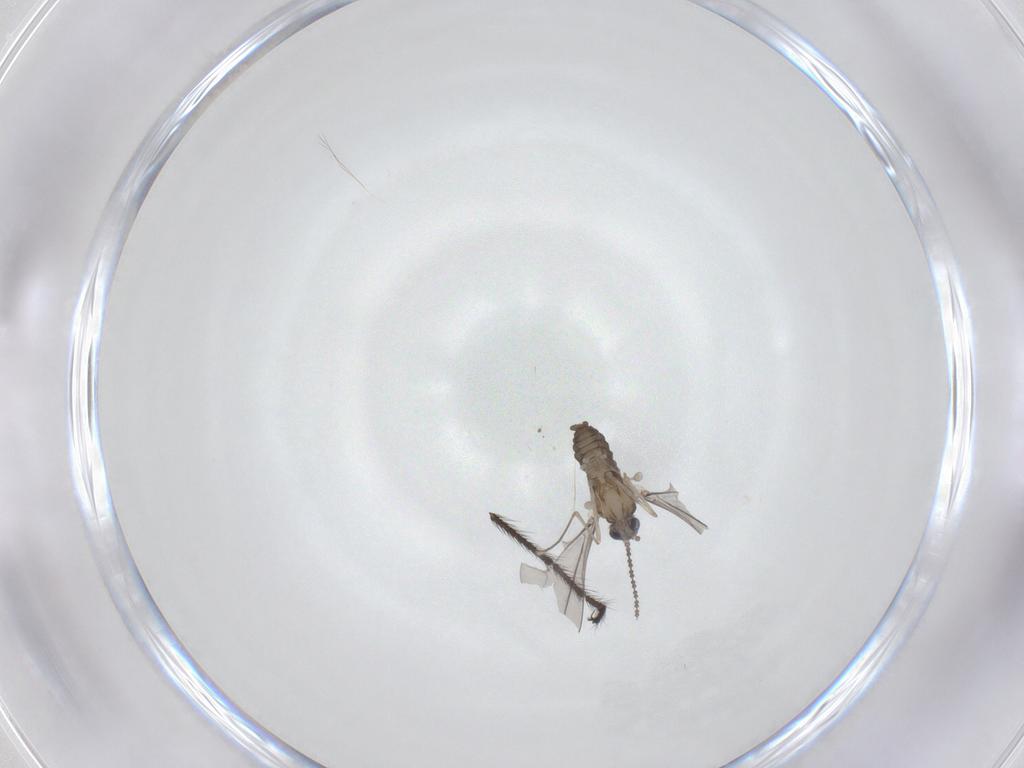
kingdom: Animalia
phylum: Arthropoda
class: Insecta
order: Diptera
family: Cecidomyiidae
